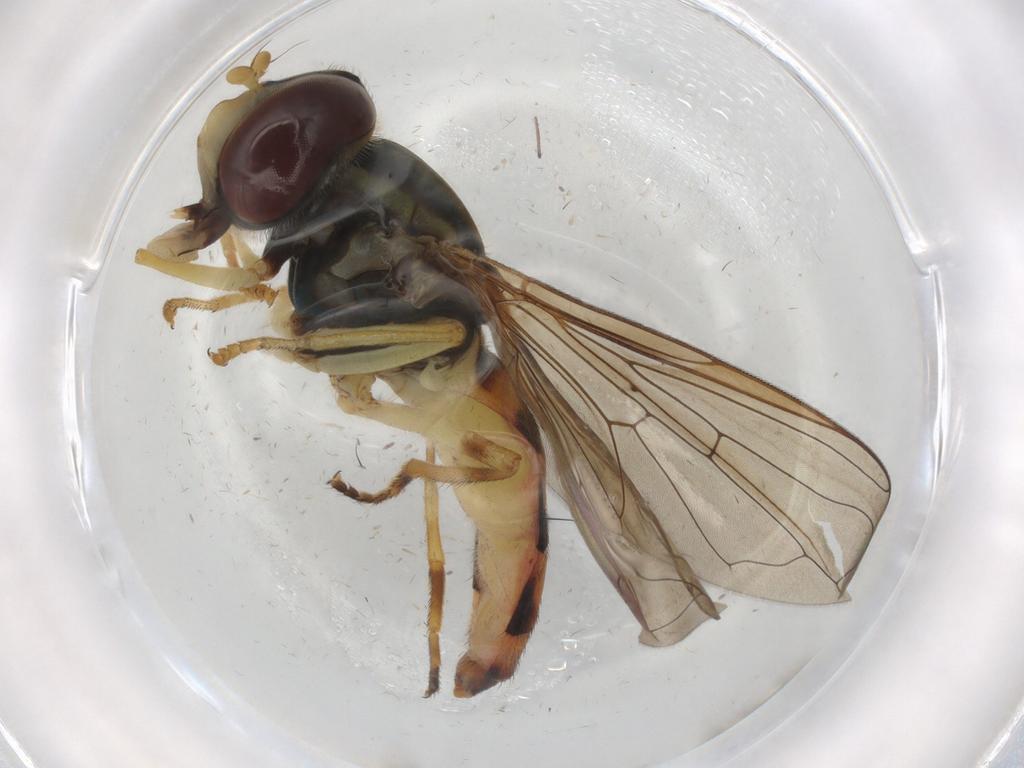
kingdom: Animalia
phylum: Arthropoda
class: Insecta
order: Diptera
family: Syrphidae
